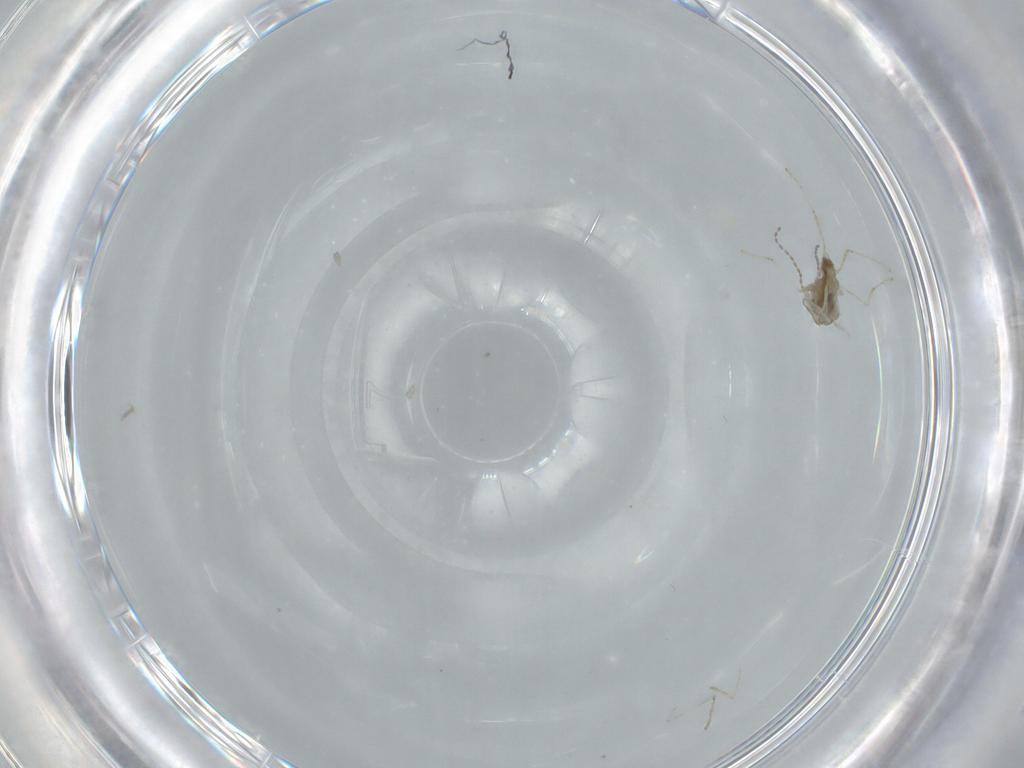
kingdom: Animalia
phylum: Arthropoda
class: Insecta
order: Diptera
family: Cecidomyiidae
